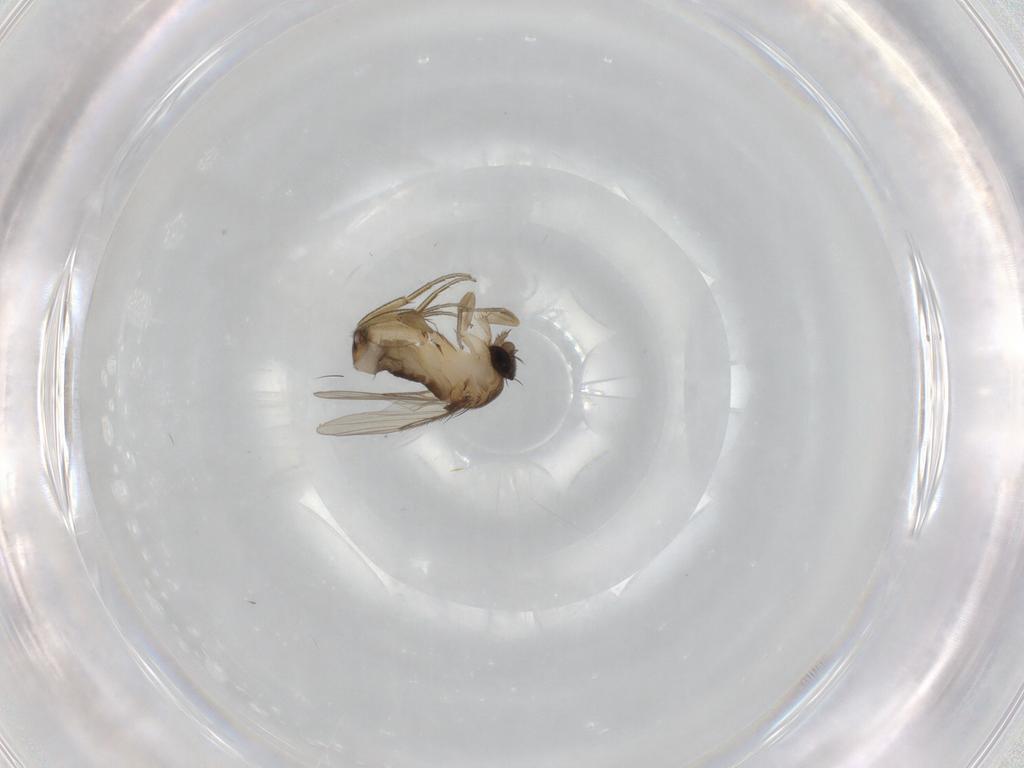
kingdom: Animalia
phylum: Arthropoda
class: Insecta
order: Diptera
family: Phoridae
